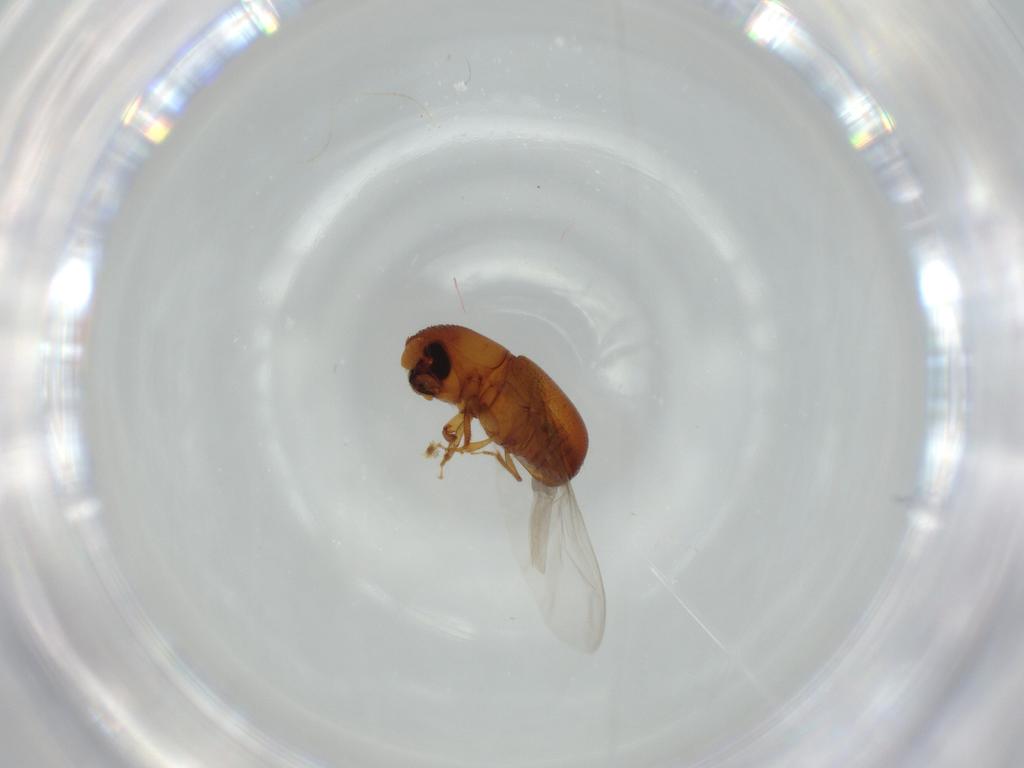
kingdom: Animalia
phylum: Arthropoda
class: Insecta
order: Coleoptera
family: Curculionidae
